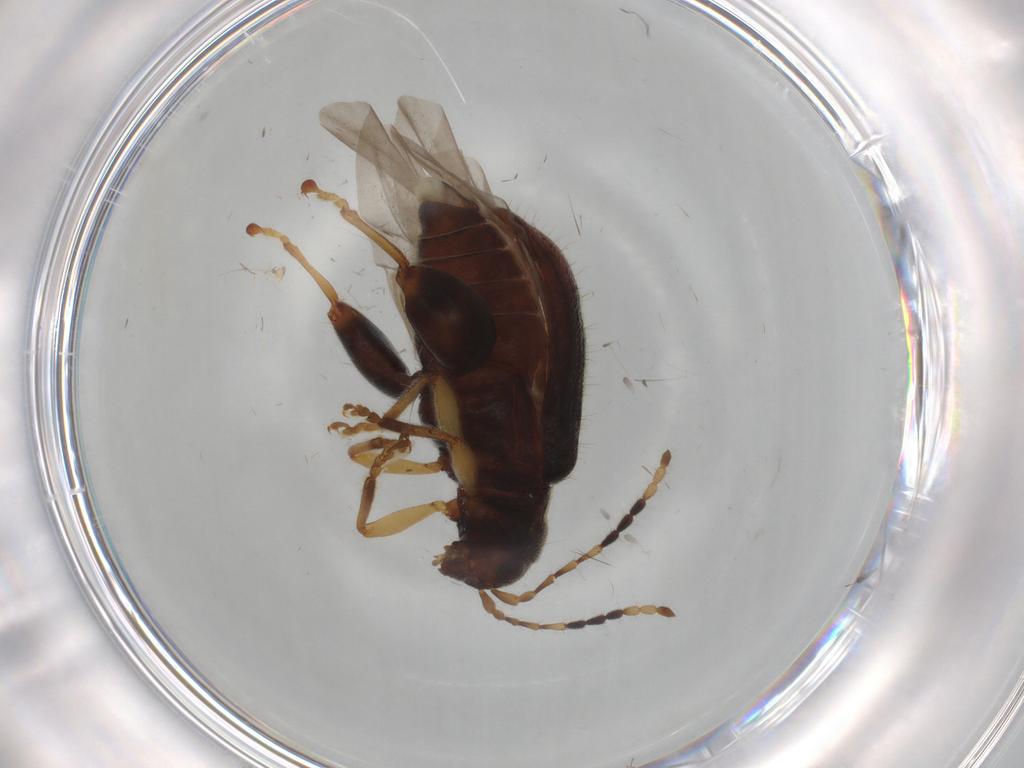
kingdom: Animalia
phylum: Arthropoda
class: Insecta
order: Coleoptera
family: Chrysomelidae
